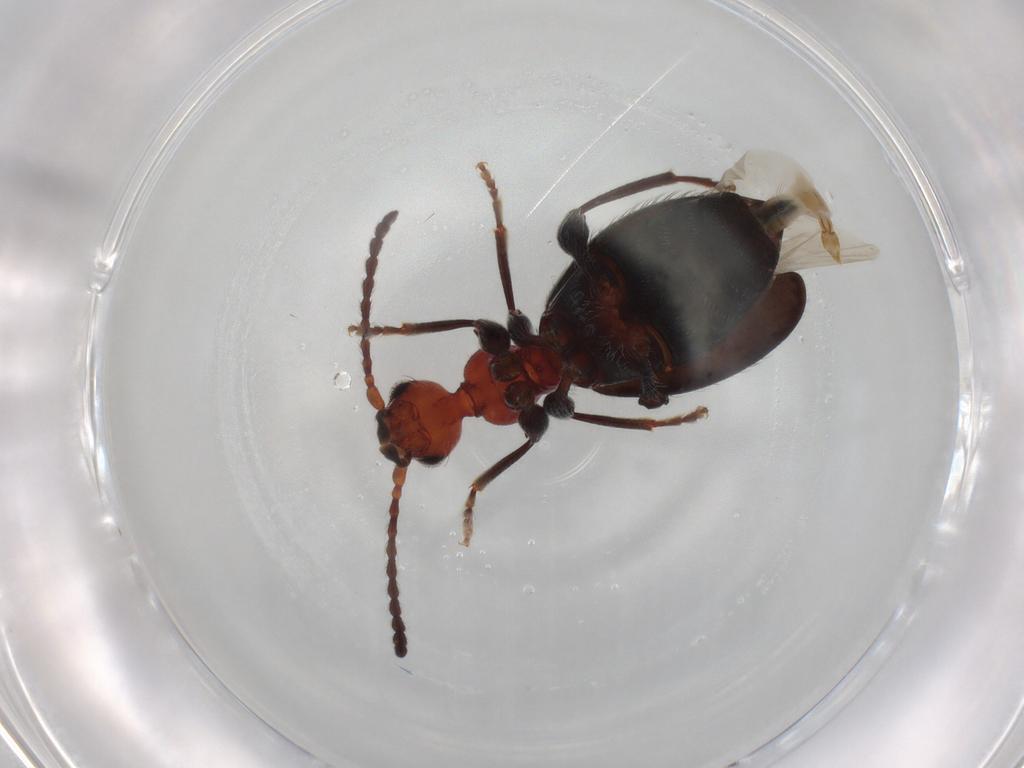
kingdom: Animalia
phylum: Arthropoda
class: Insecta
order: Coleoptera
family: Anthicidae
